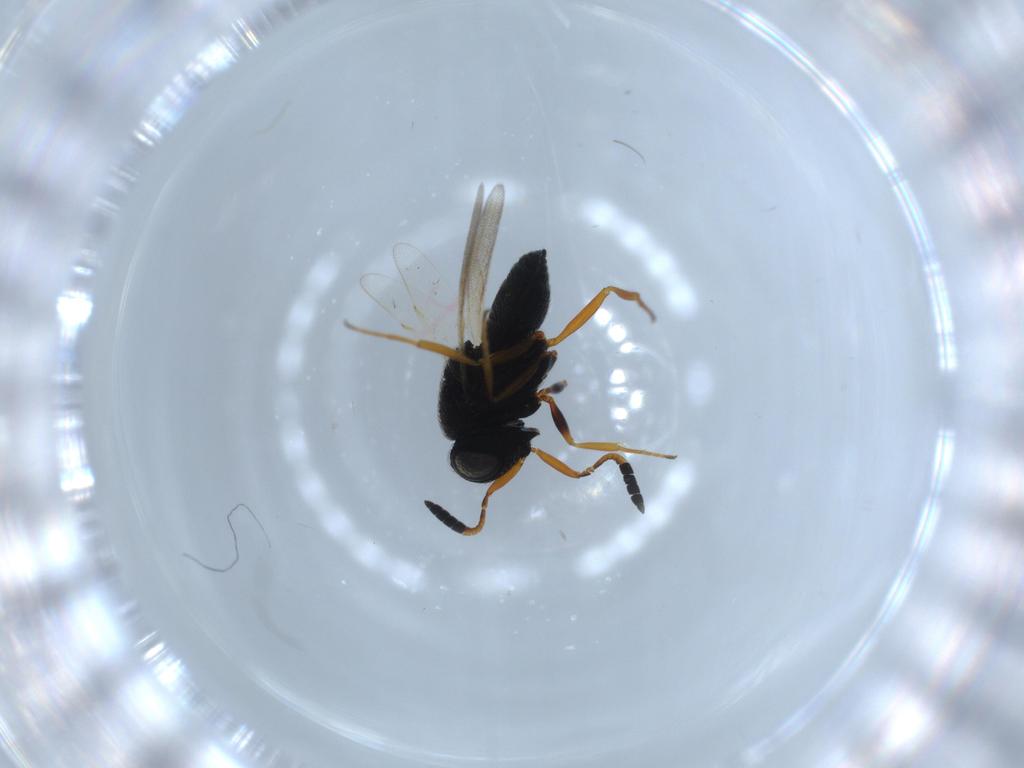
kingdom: Animalia
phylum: Arthropoda
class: Insecta
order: Hymenoptera
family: Scelionidae
